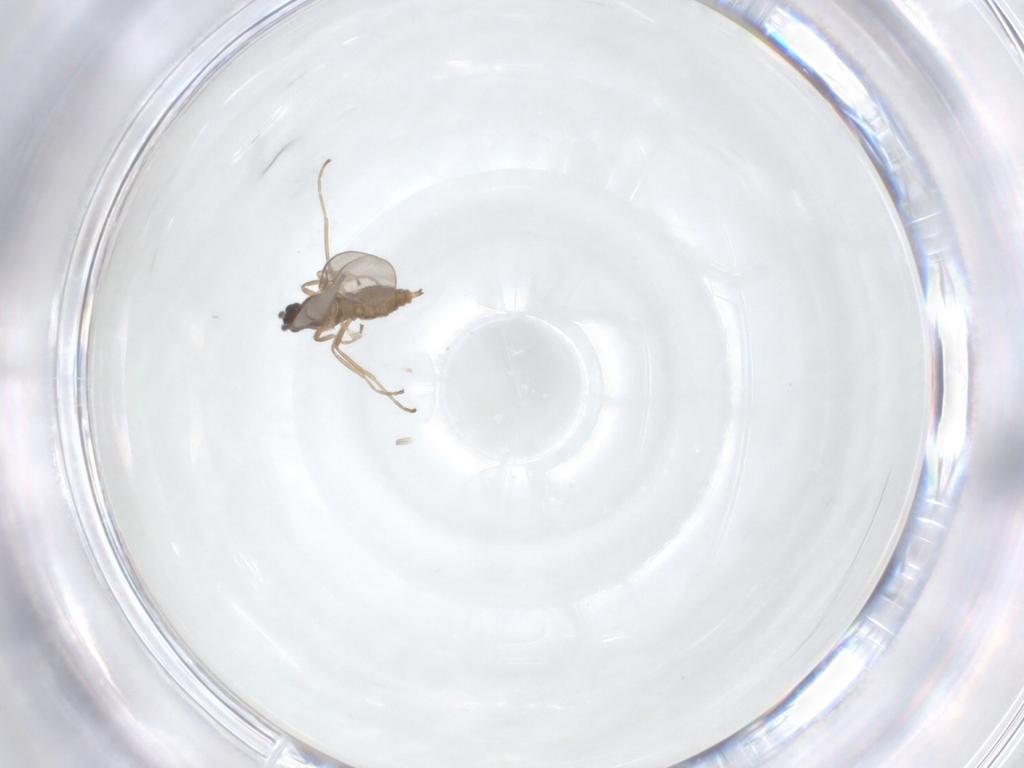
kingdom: Animalia
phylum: Arthropoda
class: Insecta
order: Diptera
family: Cecidomyiidae
